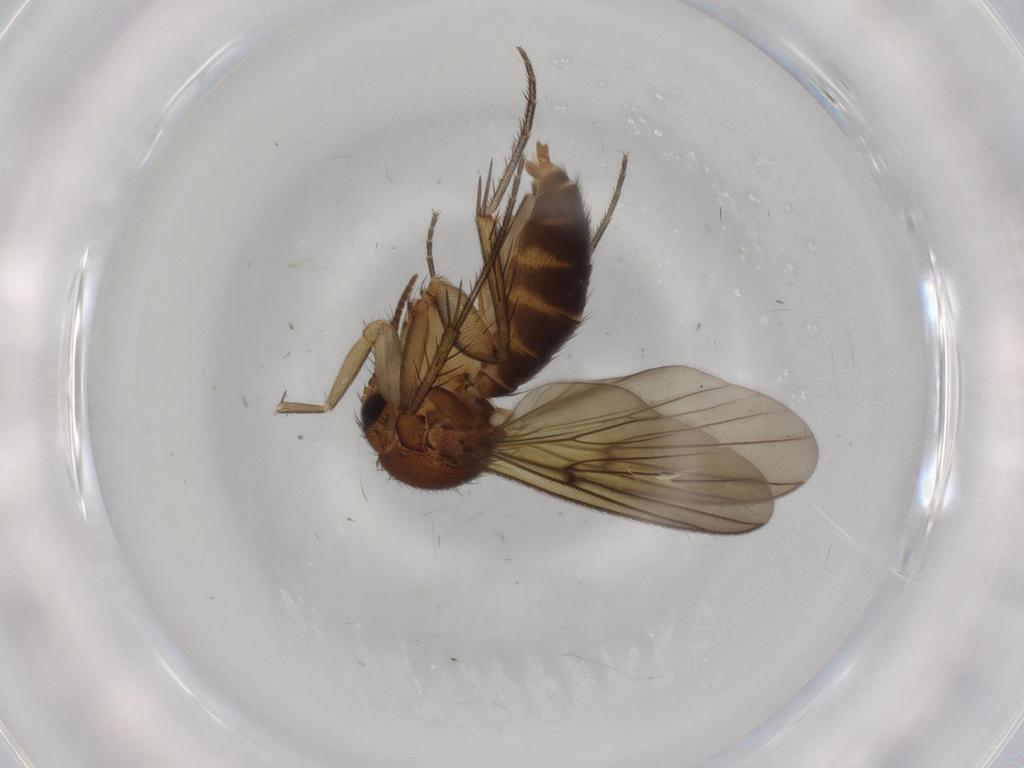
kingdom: Animalia
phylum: Arthropoda
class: Insecta
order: Diptera
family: Mycetophilidae
